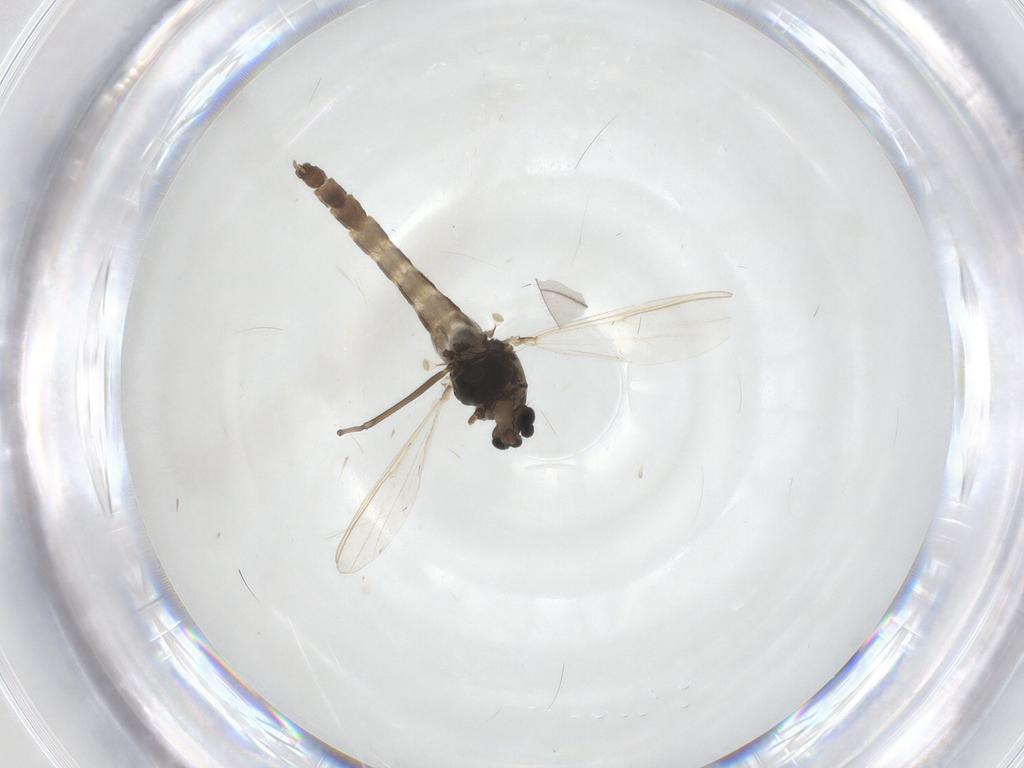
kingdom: Animalia
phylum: Arthropoda
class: Insecta
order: Diptera
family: Chironomidae
